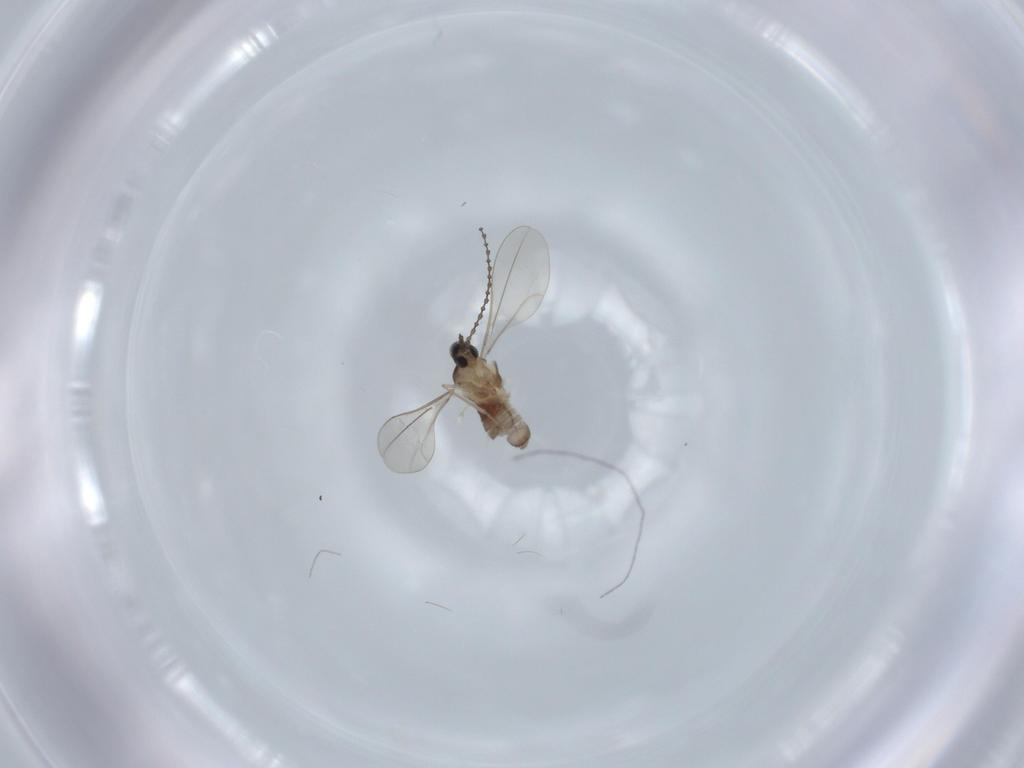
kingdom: Animalia
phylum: Arthropoda
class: Insecta
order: Diptera
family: Cecidomyiidae
